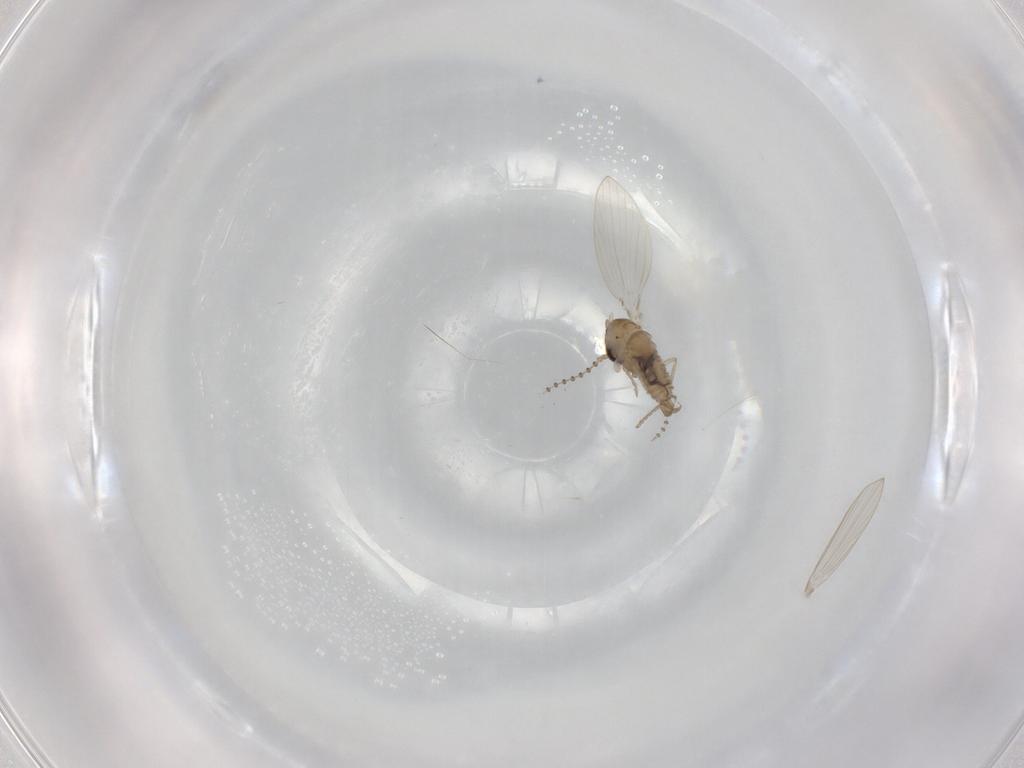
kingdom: Animalia
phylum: Arthropoda
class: Insecta
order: Diptera
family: Psychodidae
